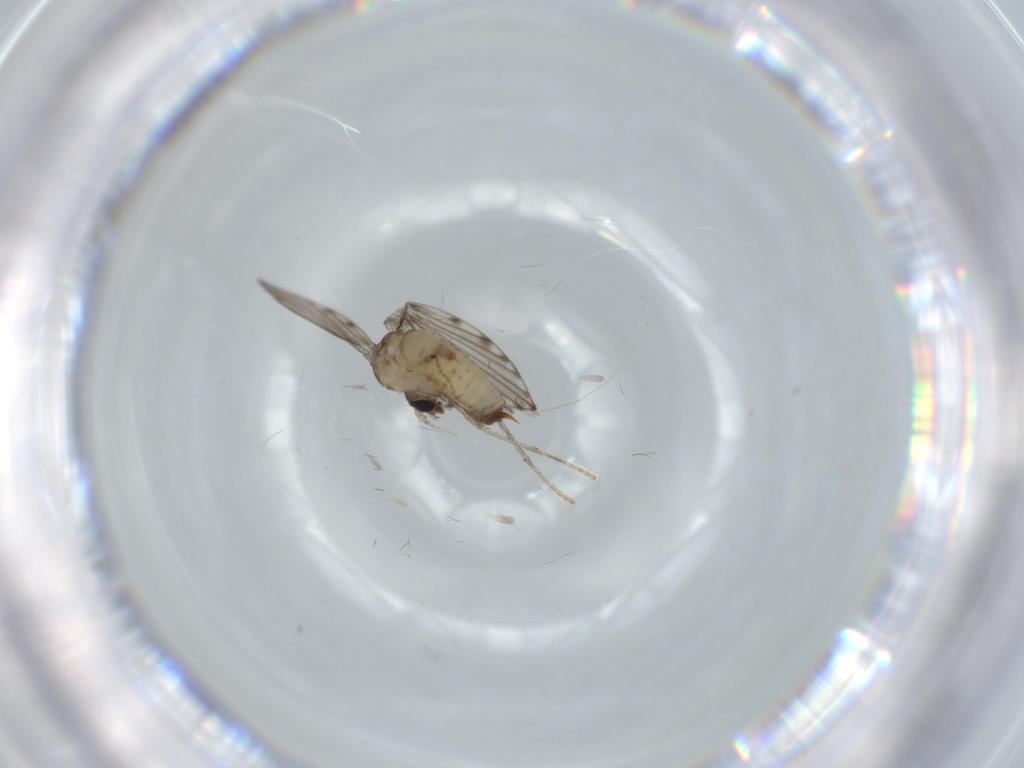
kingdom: Animalia
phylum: Arthropoda
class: Insecta
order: Diptera
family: Psychodidae
